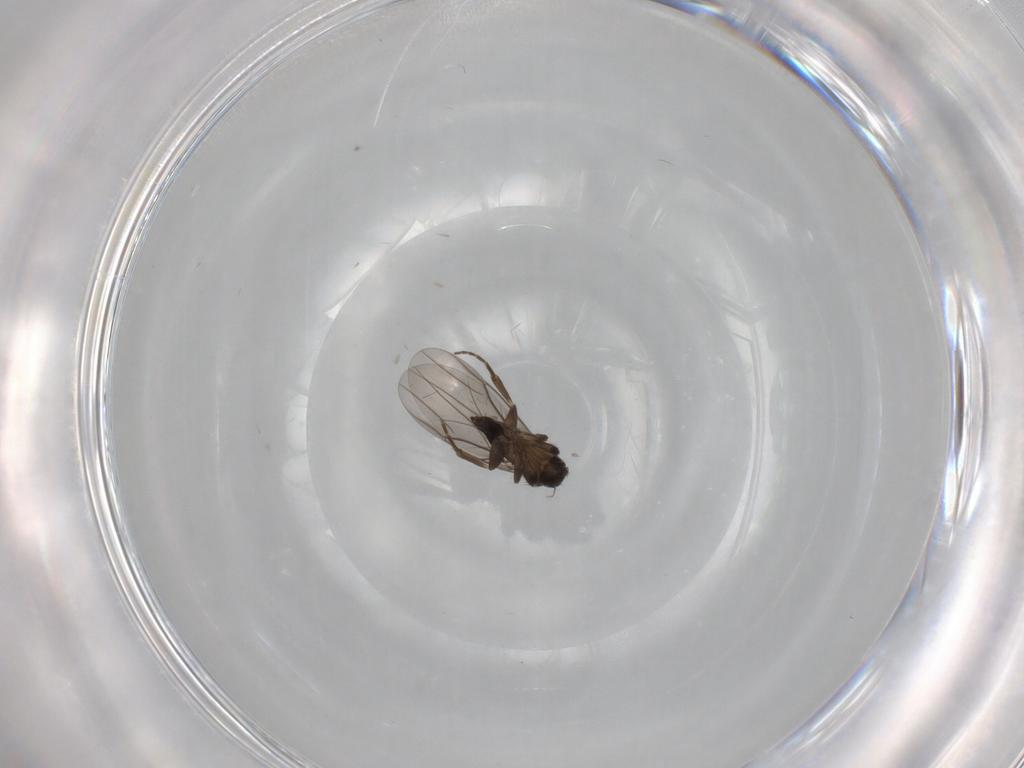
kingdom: Animalia
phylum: Arthropoda
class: Insecta
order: Diptera
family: Phoridae
